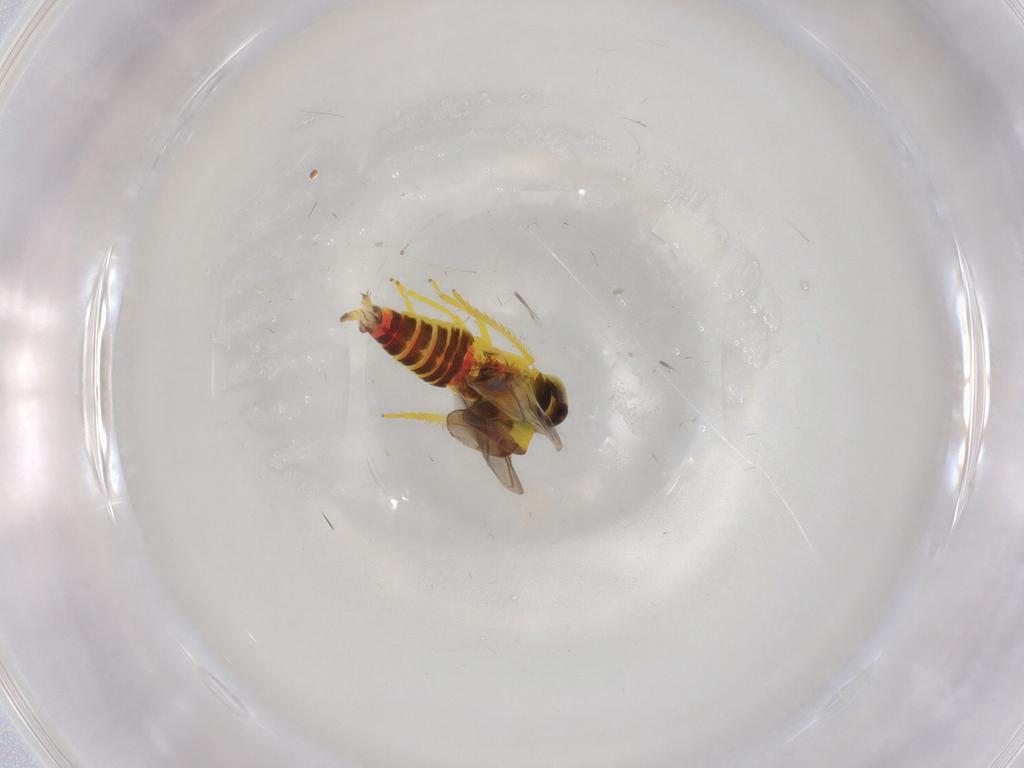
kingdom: Animalia
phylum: Arthropoda
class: Insecta
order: Hemiptera
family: Cicadellidae
